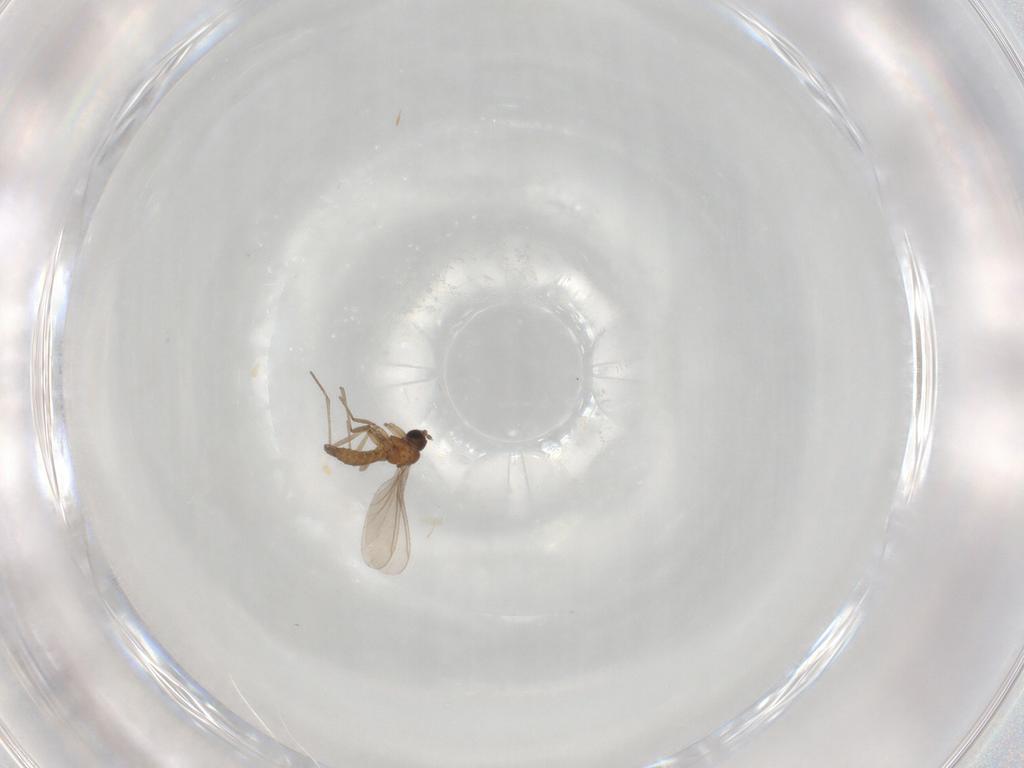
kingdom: Animalia
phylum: Arthropoda
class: Insecta
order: Diptera
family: Sciaridae
